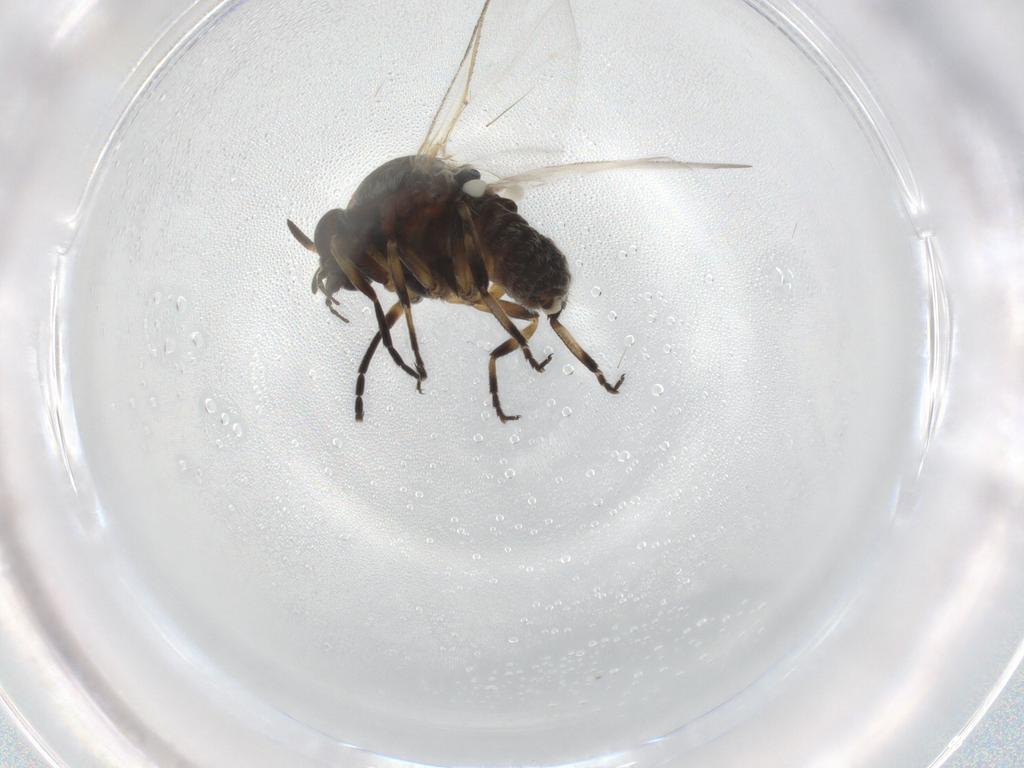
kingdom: Animalia
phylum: Arthropoda
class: Insecta
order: Diptera
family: Phoridae
